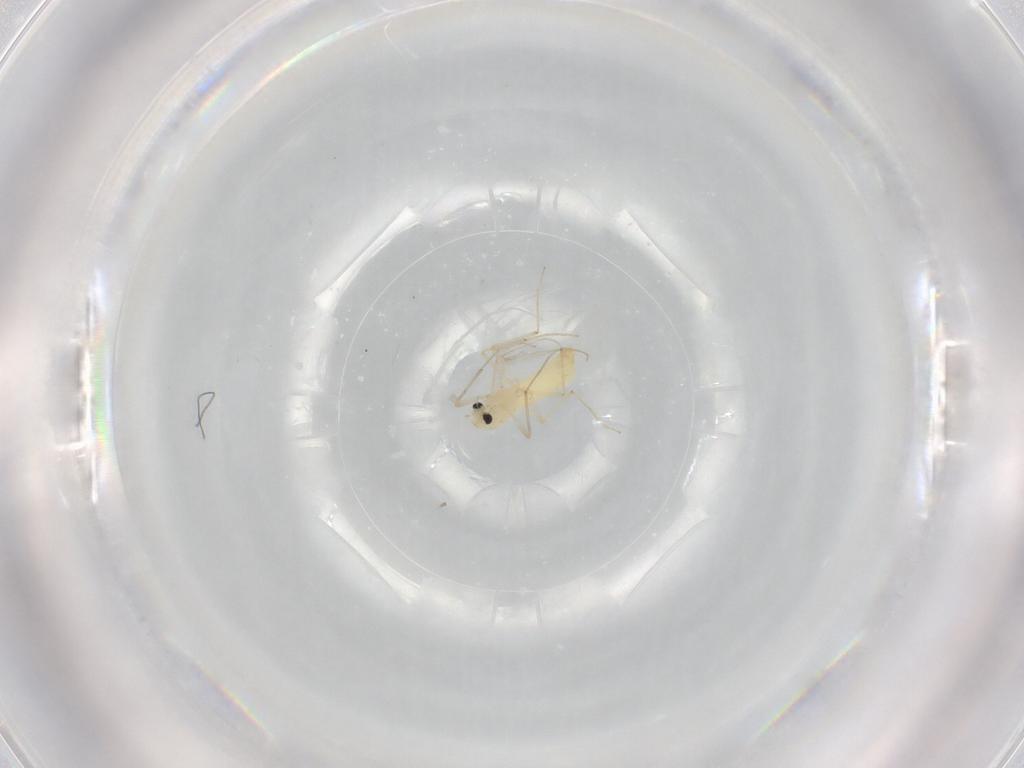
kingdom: Animalia
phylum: Arthropoda
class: Insecta
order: Diptera
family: Chironomidae
